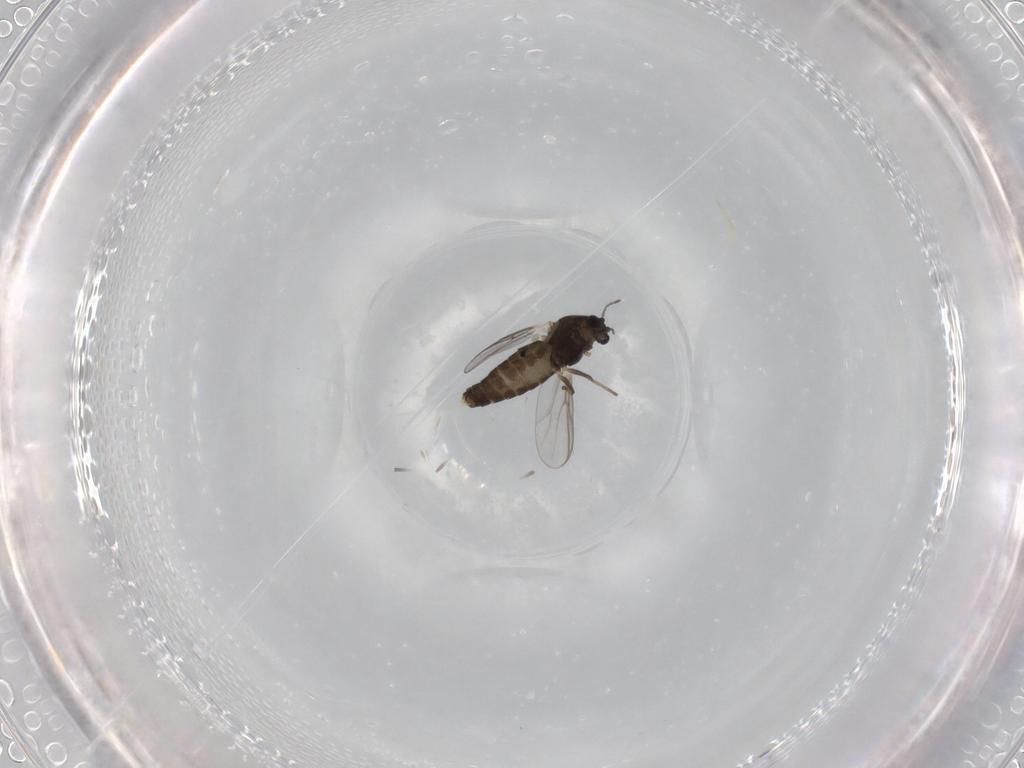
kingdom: Animalia
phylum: Arthropoda
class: Insecta
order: Diptera
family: Chironomidae
